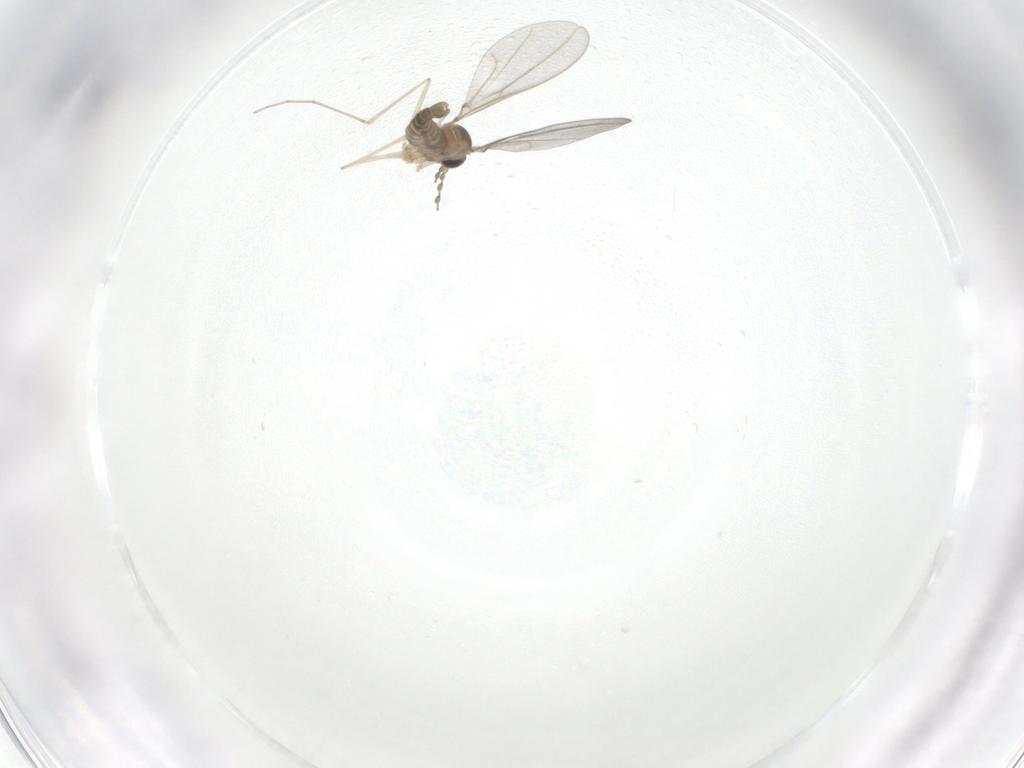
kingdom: Animalia
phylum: Arthropoda
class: Insecta
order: Diptera
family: Cecidomyiidae
